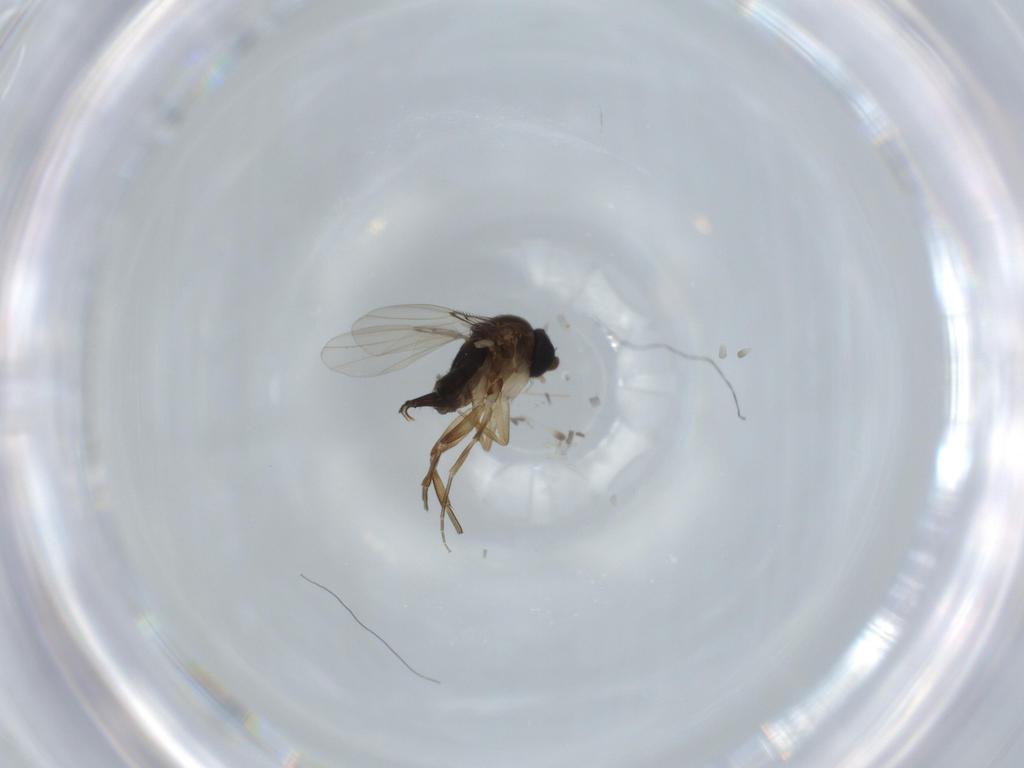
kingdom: Animalia
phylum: Arthropoda
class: Insecta
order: Diptera
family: Phoridae
